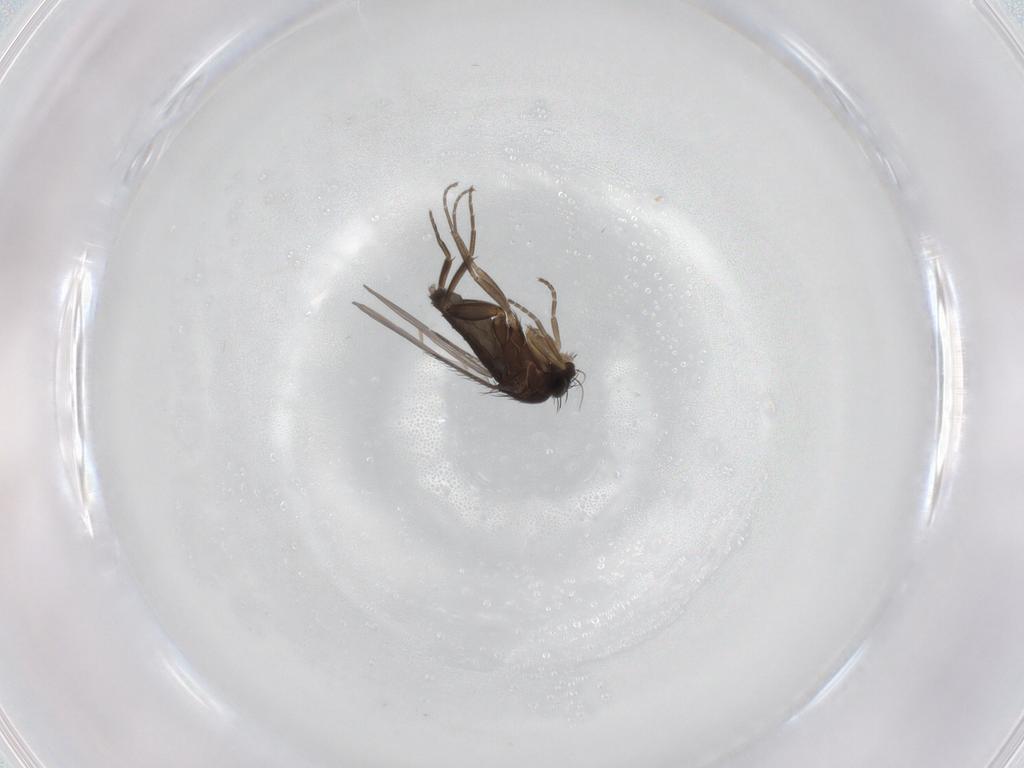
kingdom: Animalia
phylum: Arthropoda
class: Insecta
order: Diptera
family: Phoridae
